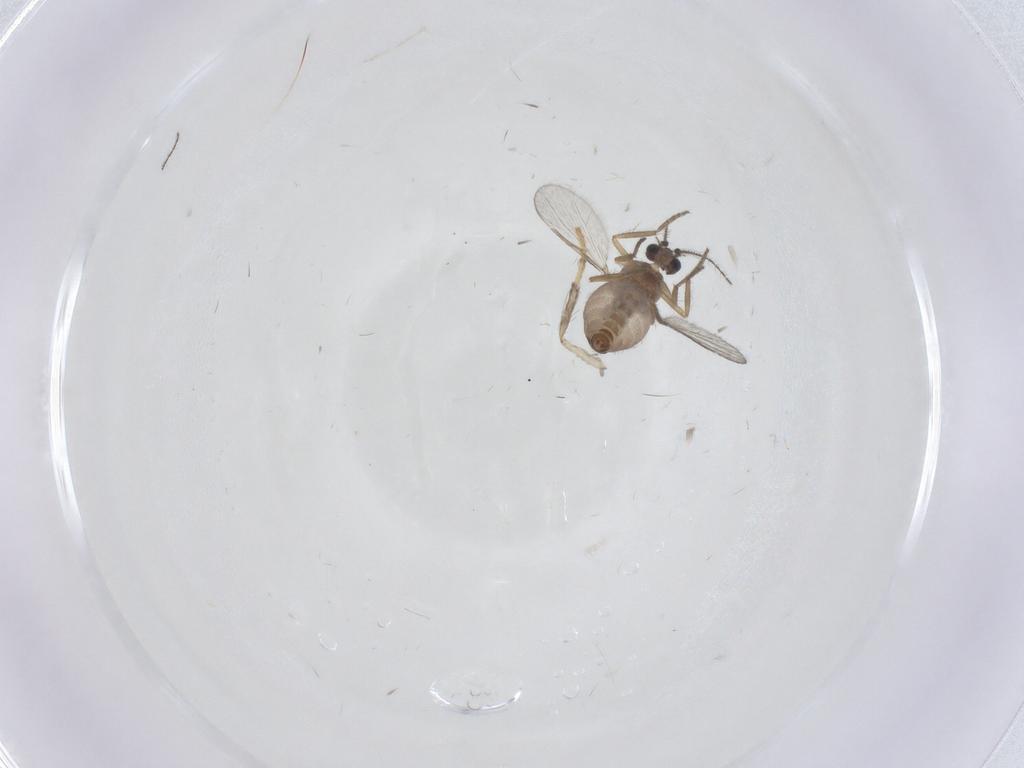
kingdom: Animalia
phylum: Arthropoda
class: Insecta
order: Diptera
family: Psychodidae
